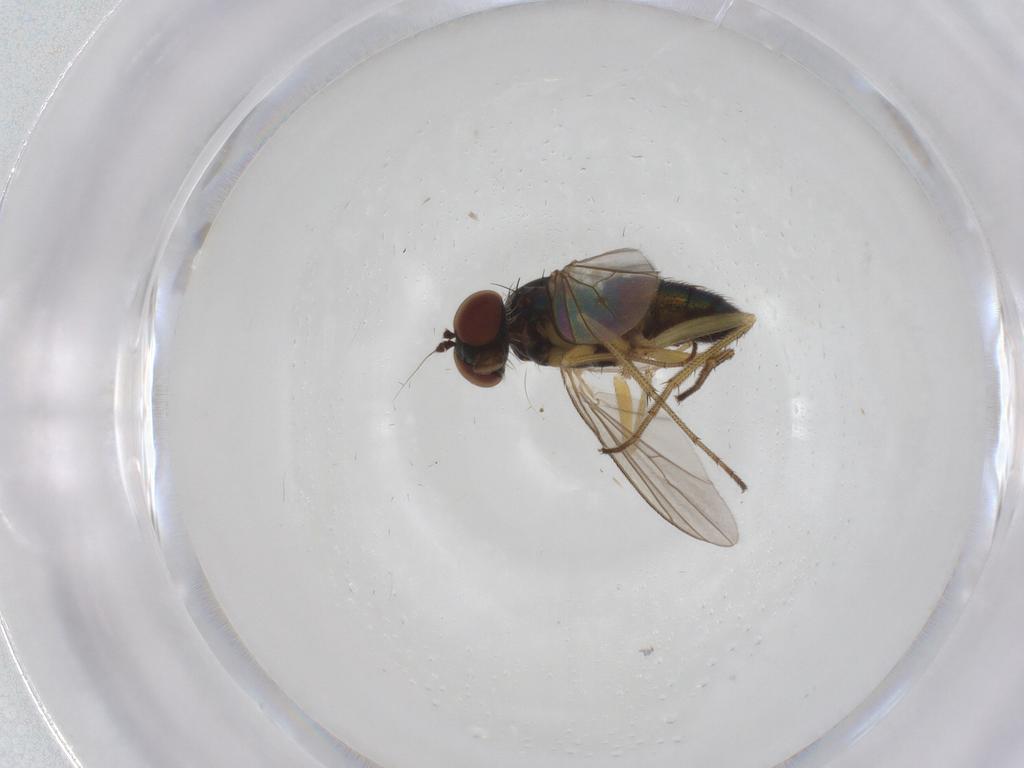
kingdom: Animalia
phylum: Arthropoda
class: Insecta
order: Diptera
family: Dolichopodidae
